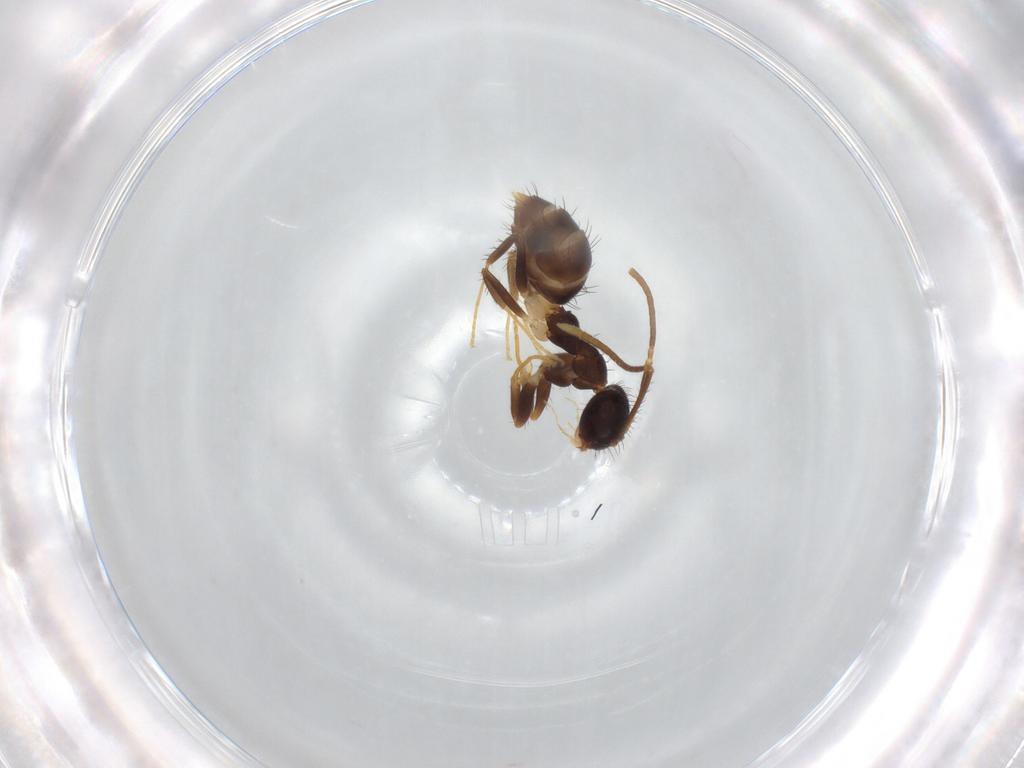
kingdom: Animalia
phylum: Arthropoda
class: Insecta
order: Hymenoptera
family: Formicidae
